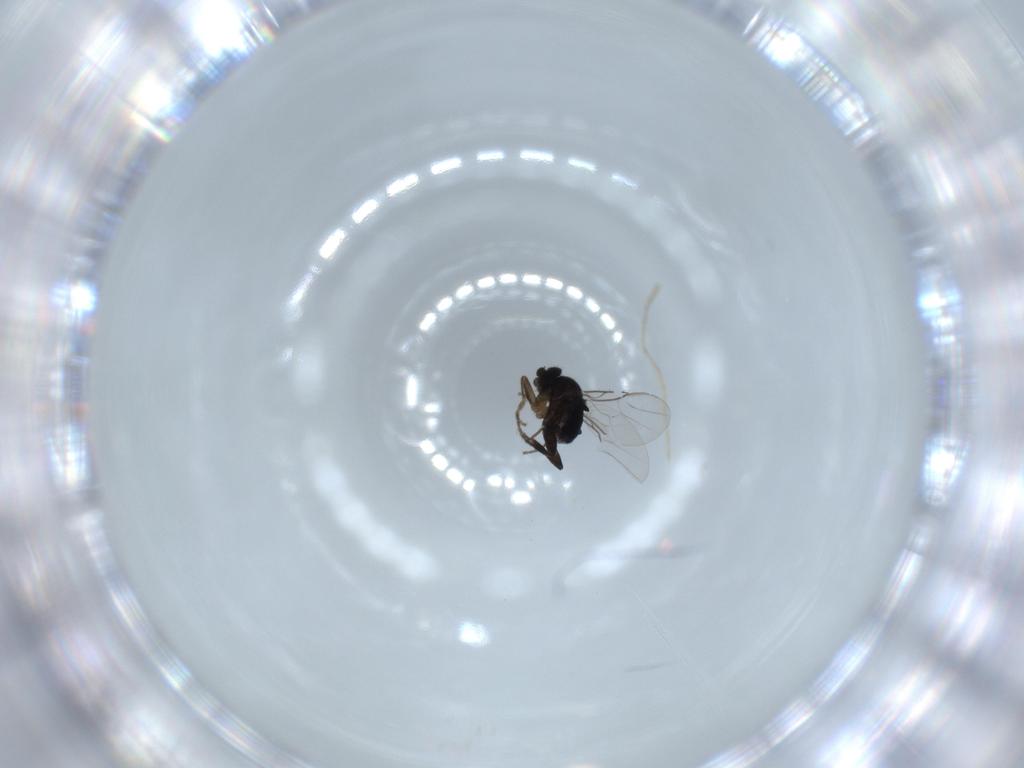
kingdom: Animalia
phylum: Arthropoda
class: Insecta
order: Diptera
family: Phoridae
